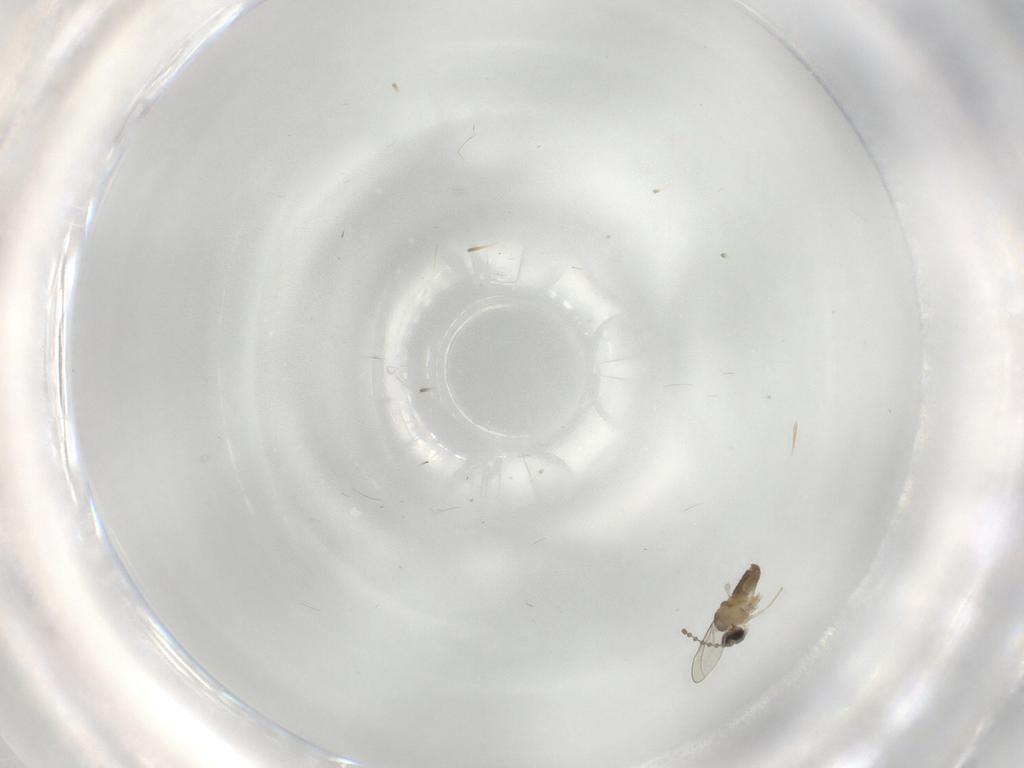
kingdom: Animalia
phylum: Arthropoda
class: Insecta
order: Diptera
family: Cecidomyiidae
